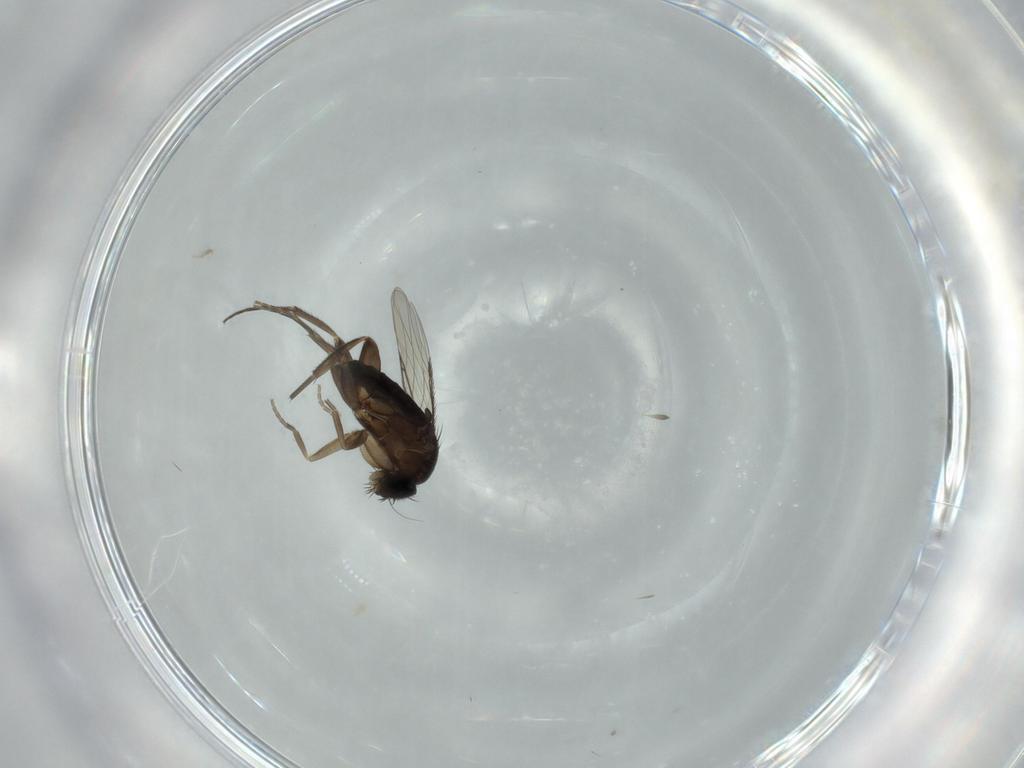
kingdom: Animalia
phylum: Arthropoda
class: Insecta
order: Diptera
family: Phoridae
